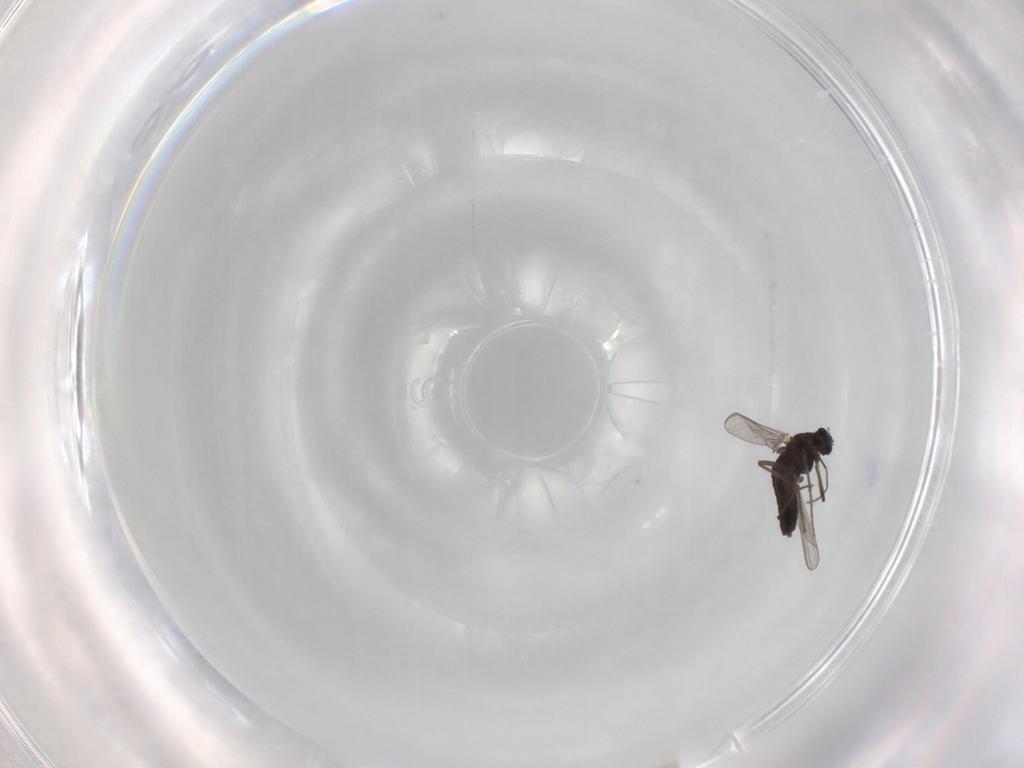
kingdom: Animalia
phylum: Arthropoda
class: Insecta
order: Diptera
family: Chironomidae
